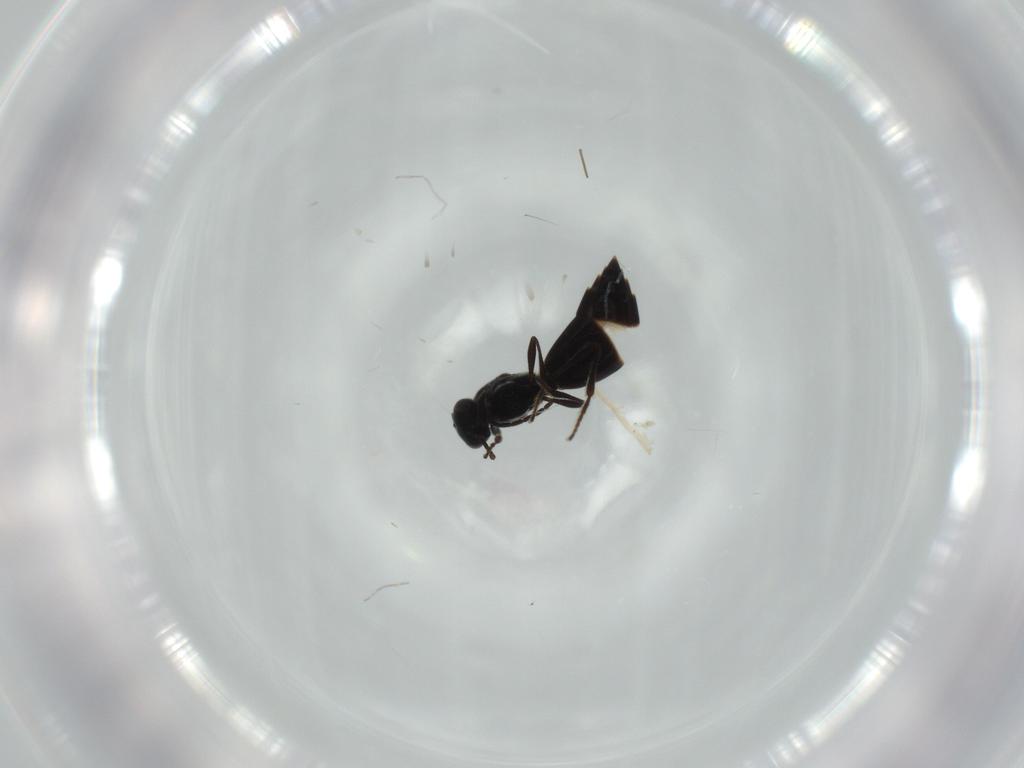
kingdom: Animalia
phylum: Arthropoda
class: Insecta
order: Hymenoptera
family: Platygastridae
